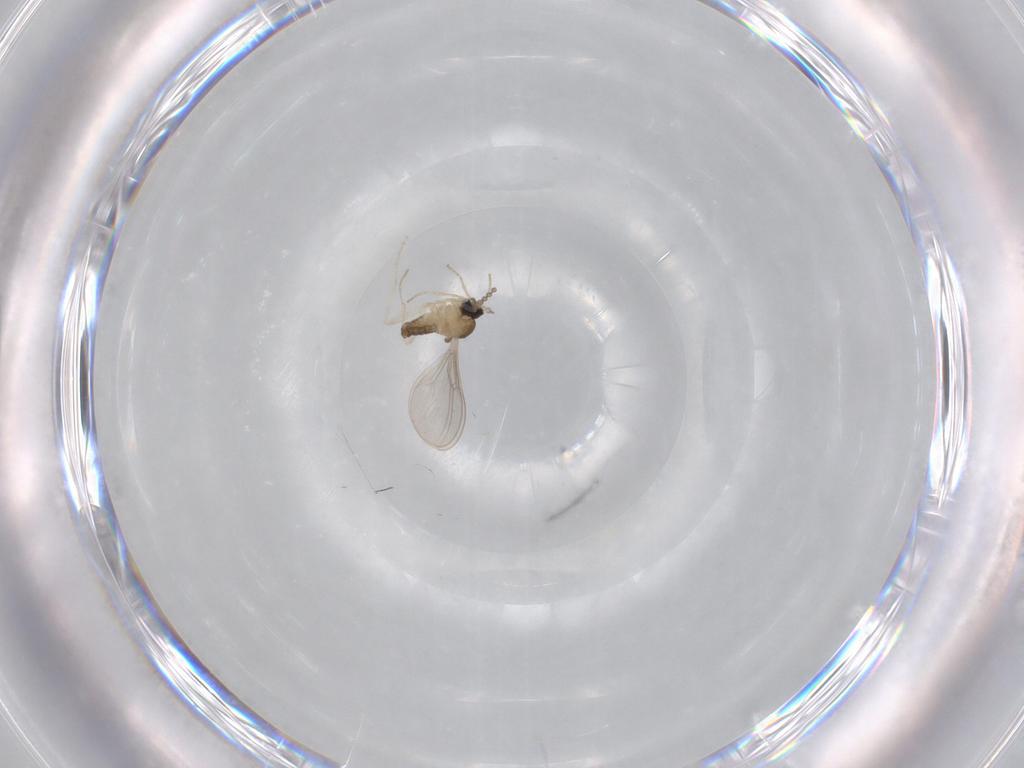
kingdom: Animalia
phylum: Arthropoda
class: Insecta
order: Diptera
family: Cecidomyiidae
